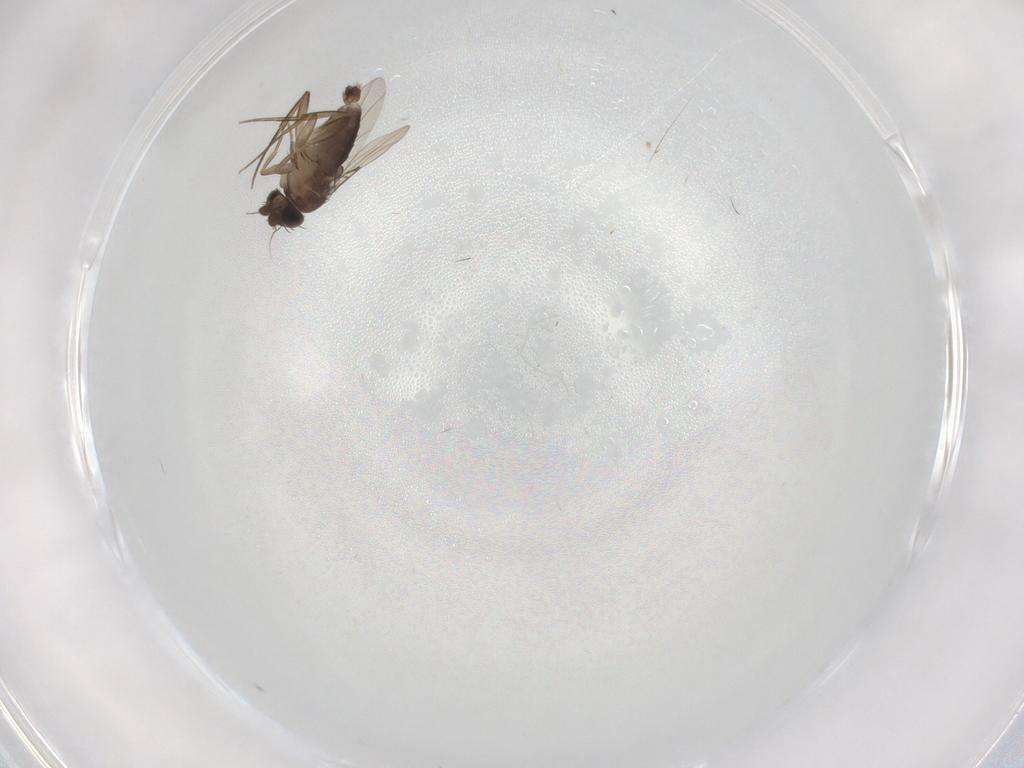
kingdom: Animalia
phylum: Arthropoda
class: Insecta
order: Diptera
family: Phoridae
